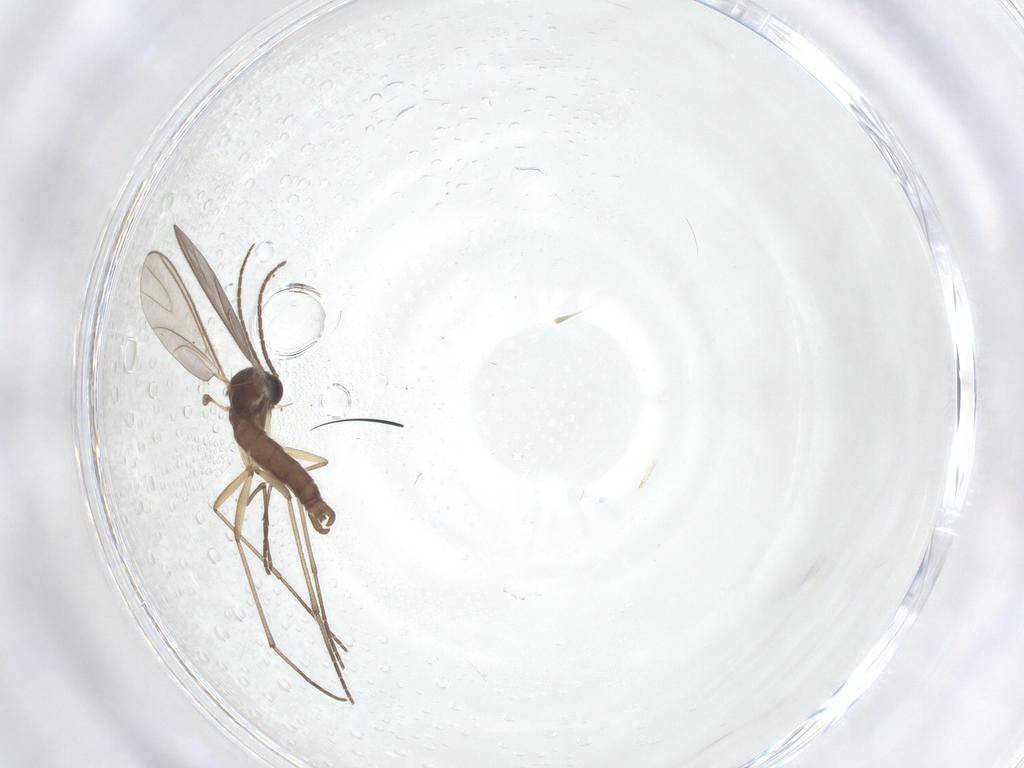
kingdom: Animalia
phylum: Arthropoda
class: Insecta
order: Diptera
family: Sciaridae
